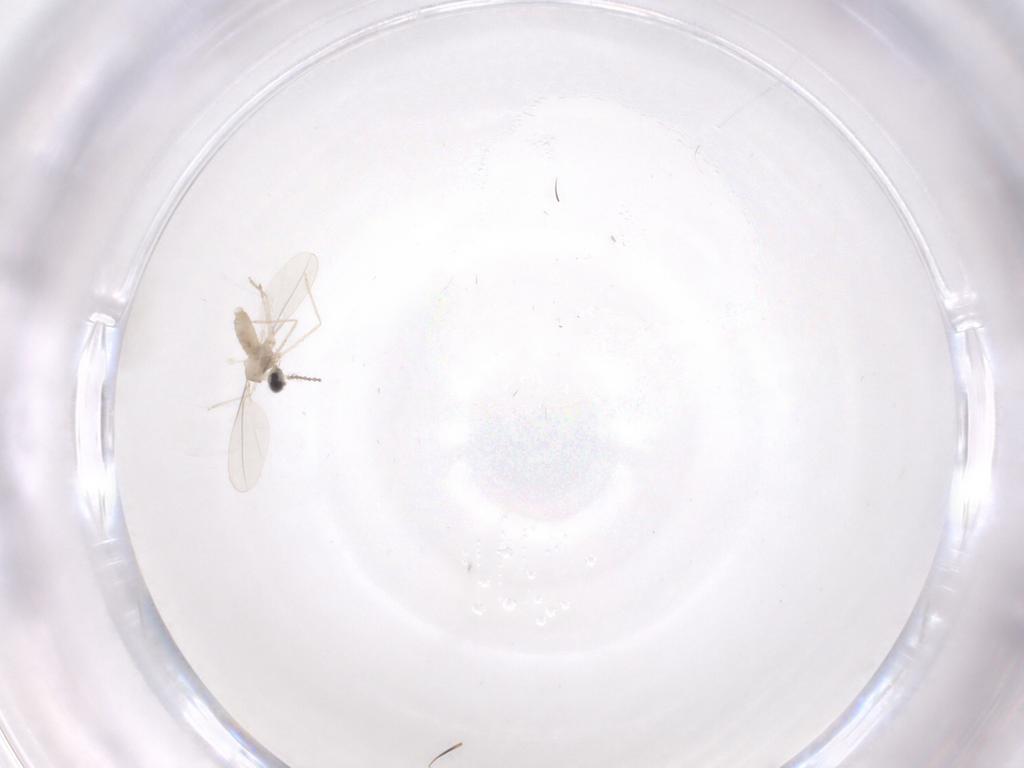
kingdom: Animalia
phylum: Arthropoda
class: Insecta
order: Diptera
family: Cecidomyiidae
